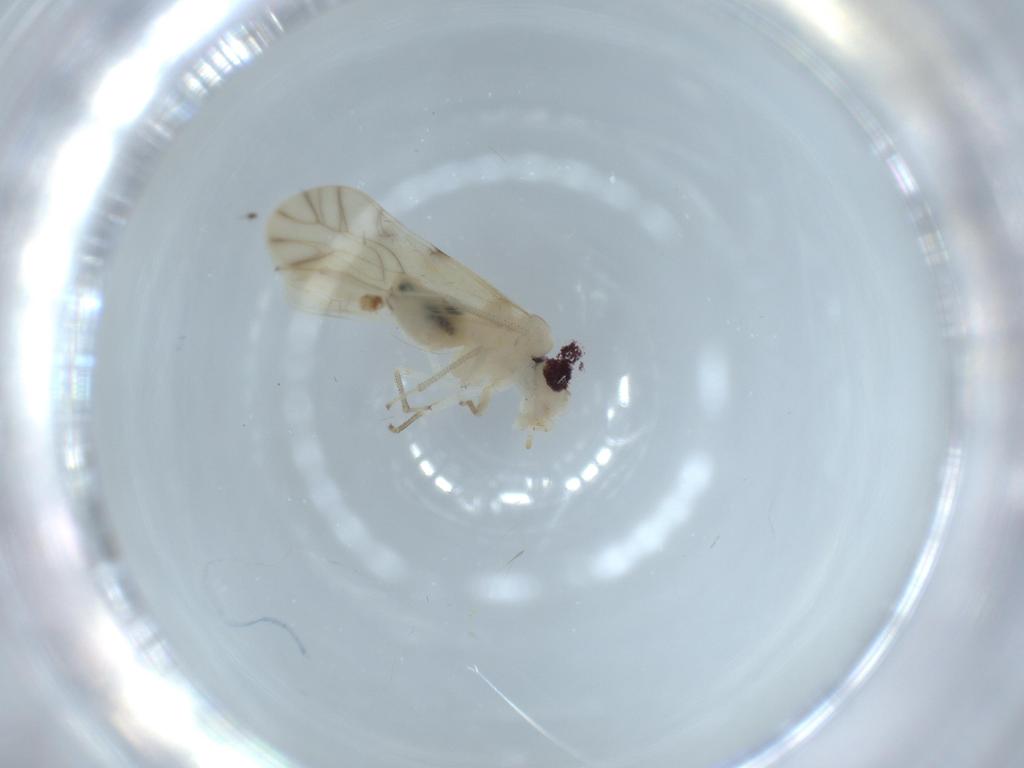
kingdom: Animalia
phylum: Arthropoda
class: Insecta
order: Psocodea
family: Caeciliusidae
